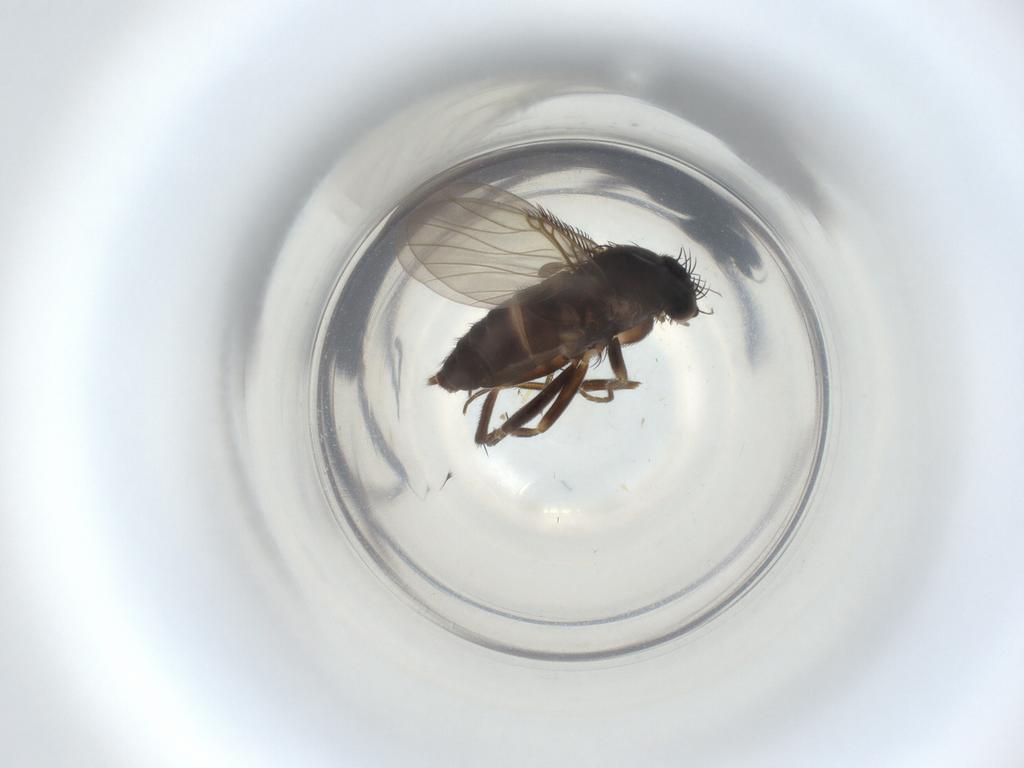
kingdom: Animalia
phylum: Arthropoda
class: Insecta
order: Diptera
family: Phoridae
